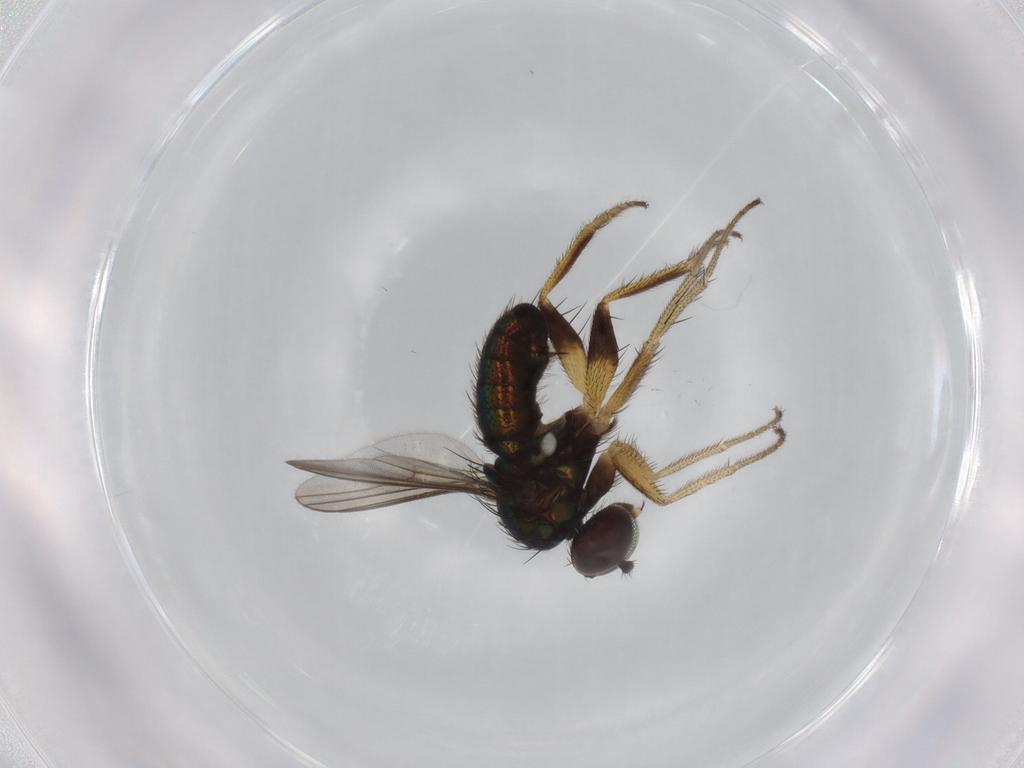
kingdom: Animalia
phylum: Arthropoda
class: Insecta
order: Diptera
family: Dolichopodidae
